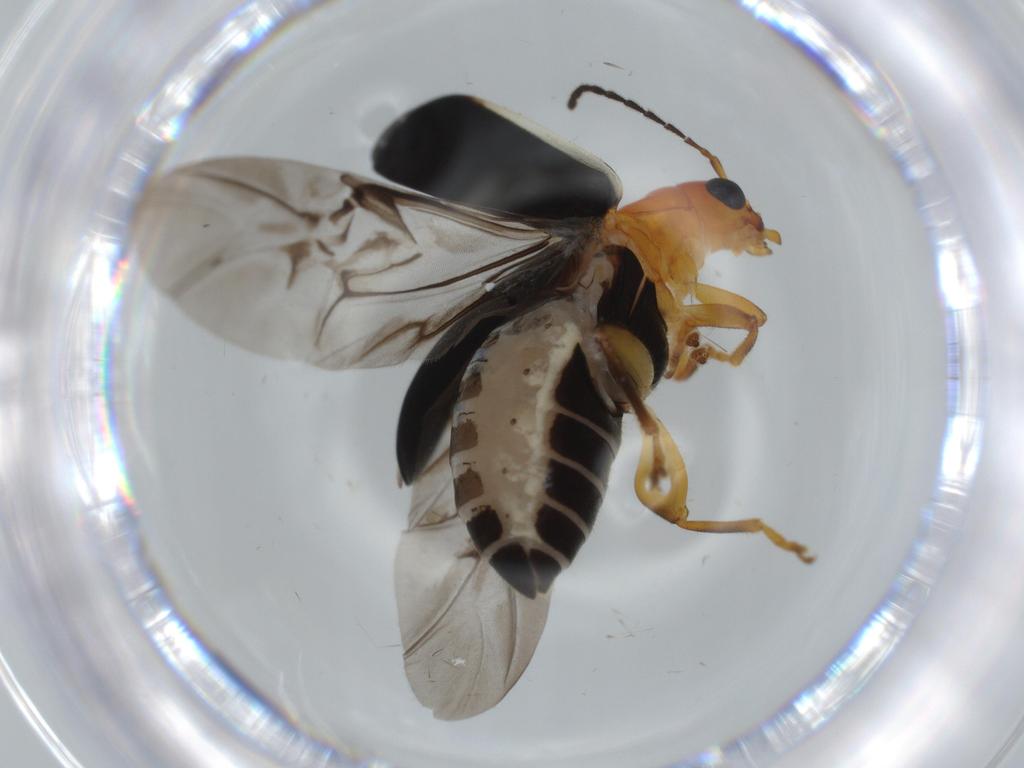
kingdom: Animalia
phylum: Arthropoda
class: Insecta
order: Coleoptera
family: Chrysomelidae
